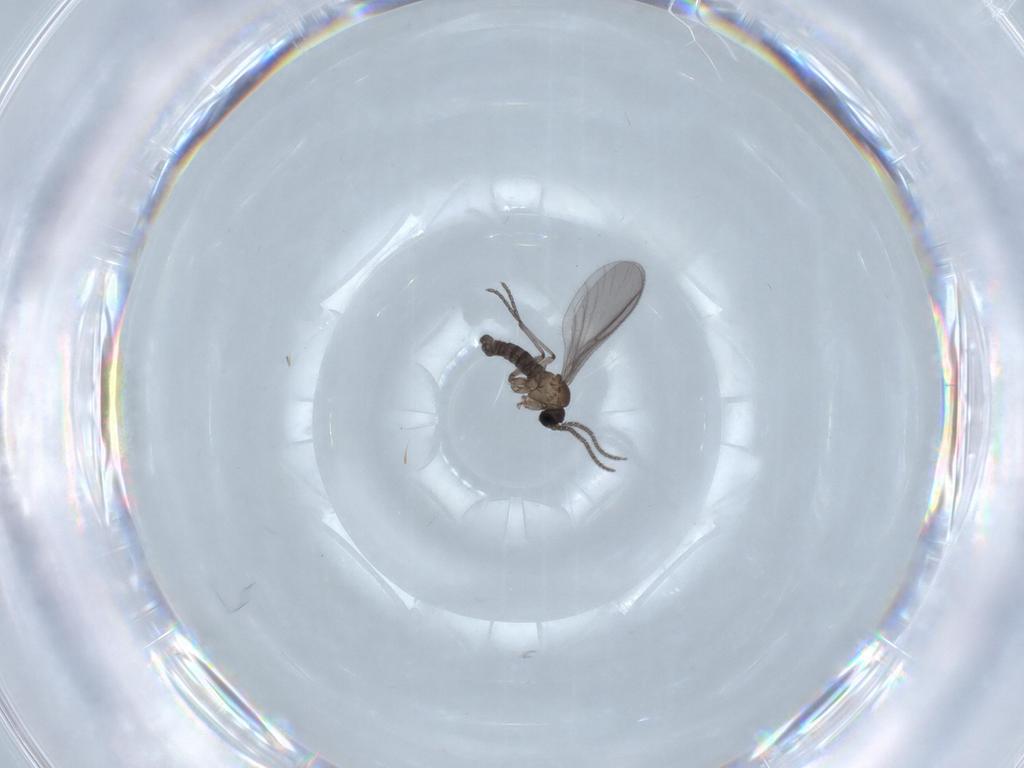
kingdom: Animalia
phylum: Arthropoda
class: Insecta
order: Diptera
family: Sciaridae
